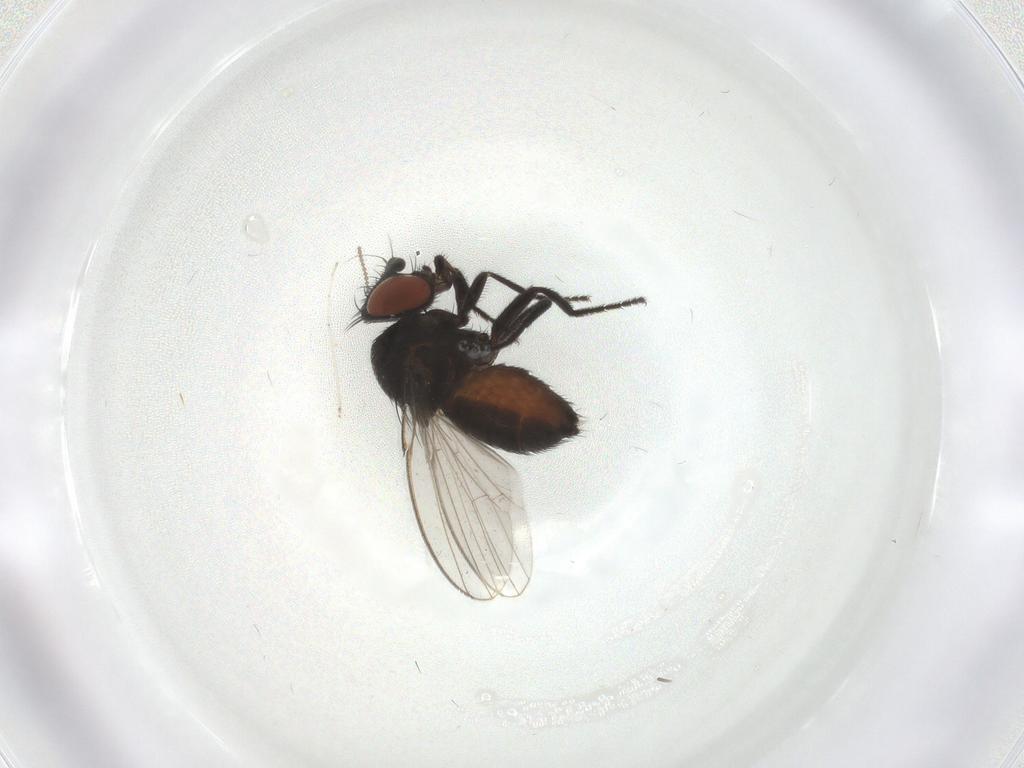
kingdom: Animalia
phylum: Arthropoda
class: Insecta
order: Diptera
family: Milichiidae
